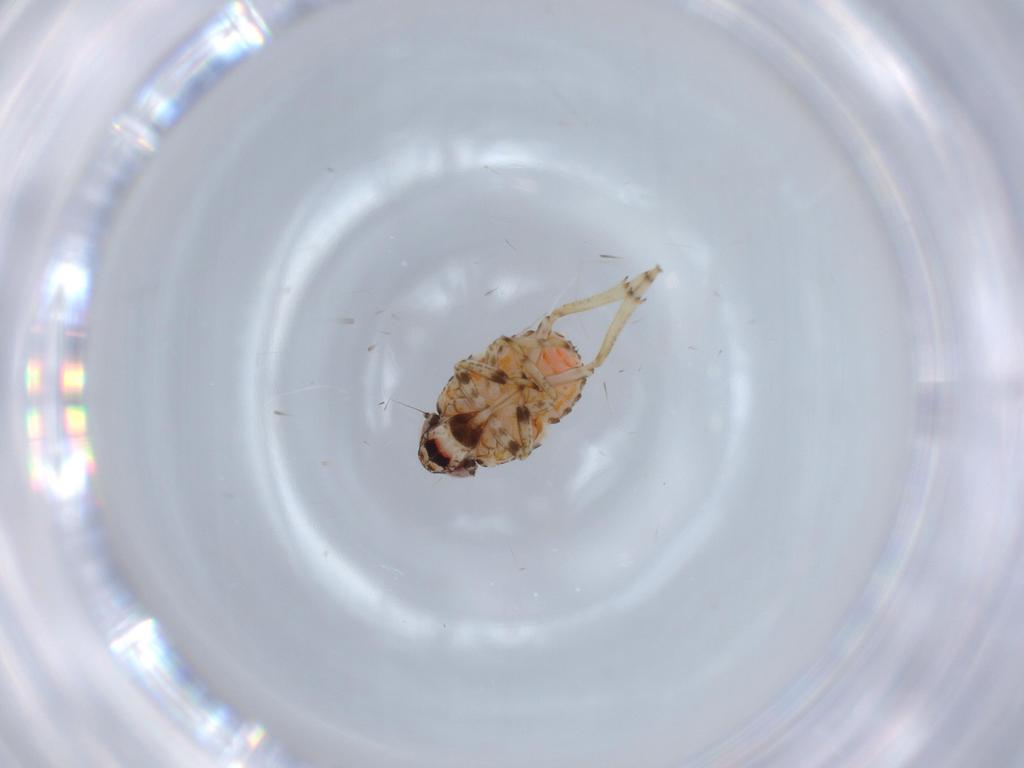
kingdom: Animalia
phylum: Arthropoda
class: Insecta
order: Hemiptera
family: Issidae
